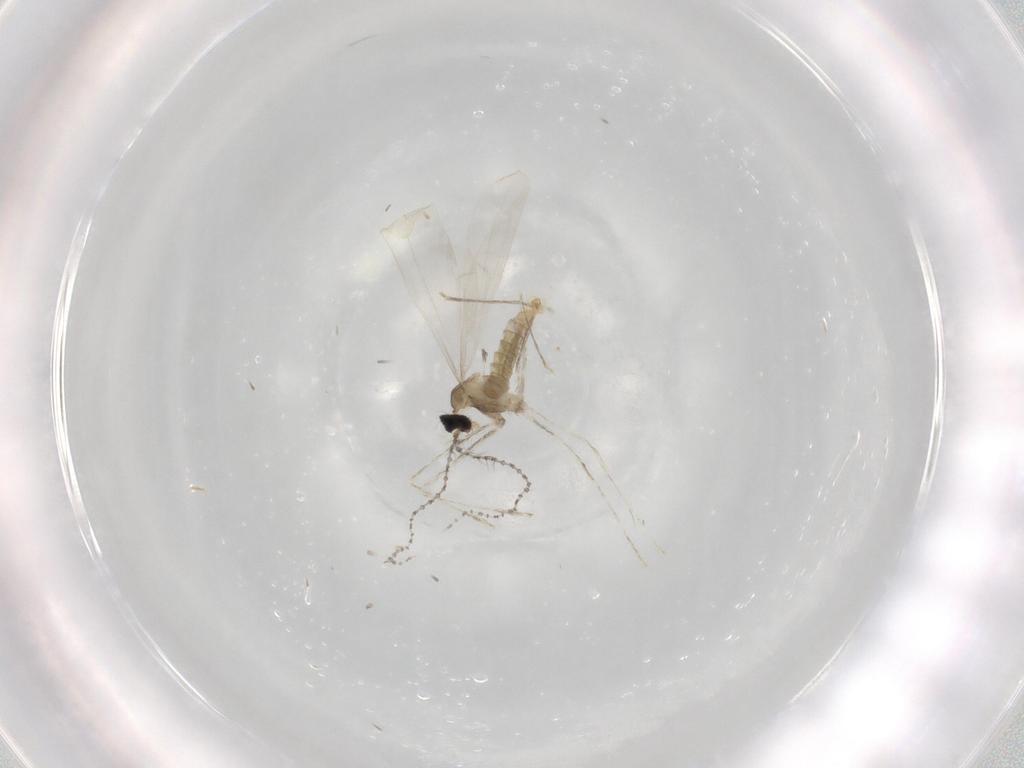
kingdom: Animalia
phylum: Arthropoda
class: Insecta
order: Diptera
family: Cecidomyiidae
